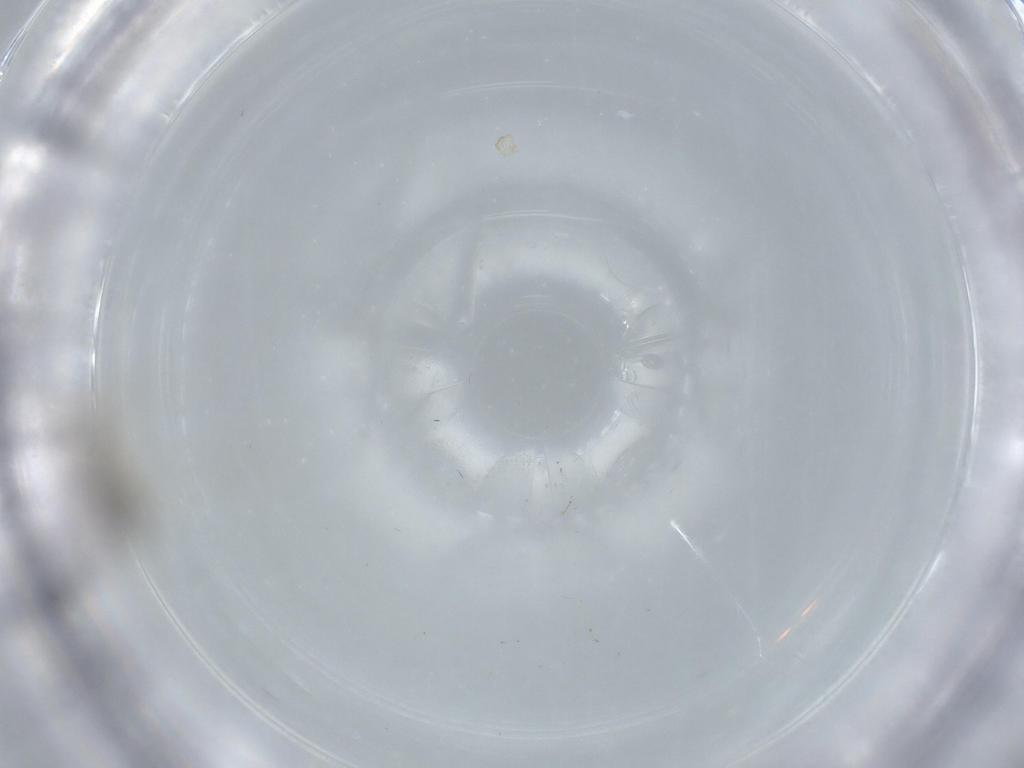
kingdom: Animalia
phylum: Arthropoda
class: Insecta
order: Diptera
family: Cecidomyiidae
